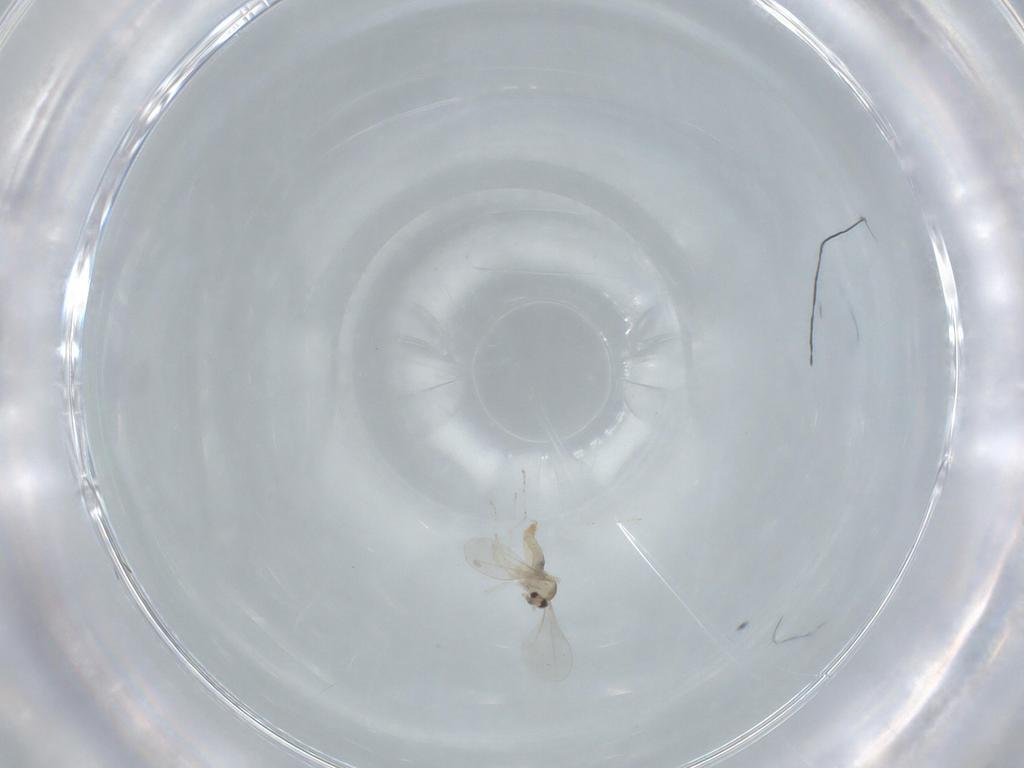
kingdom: Animalia
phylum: Arthropoda
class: Insecta
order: Diptera
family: Cecidomyiidae
